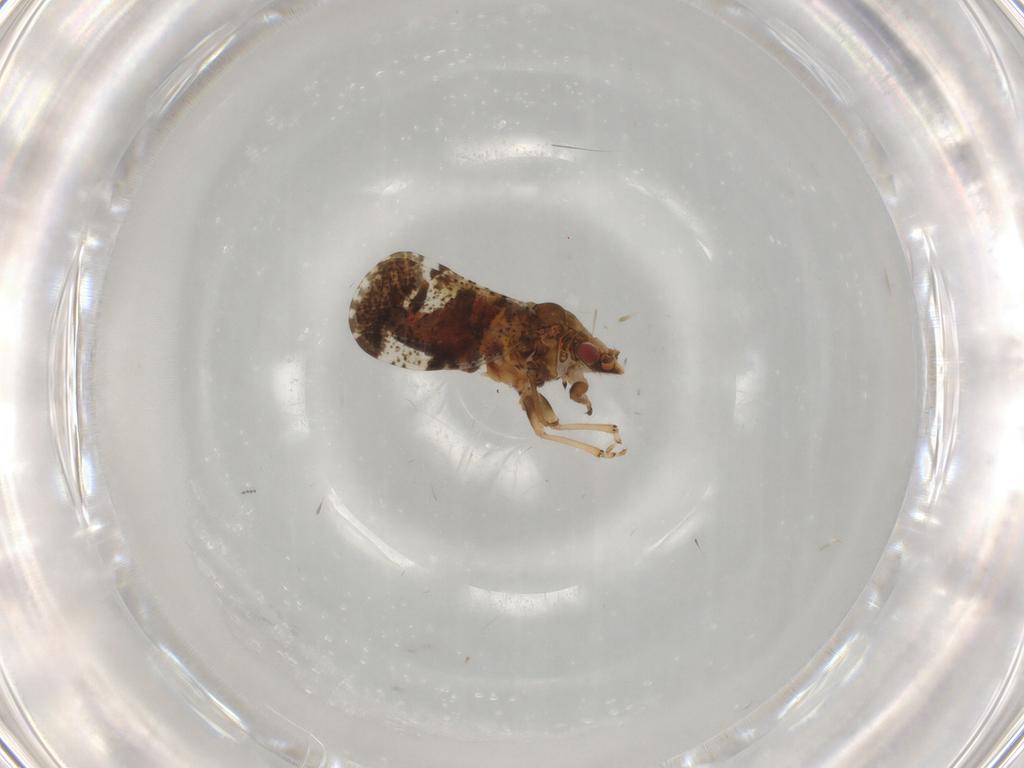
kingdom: Animalia
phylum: Arthropoda
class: Insecta
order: Hemiptera
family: Psyllidae
